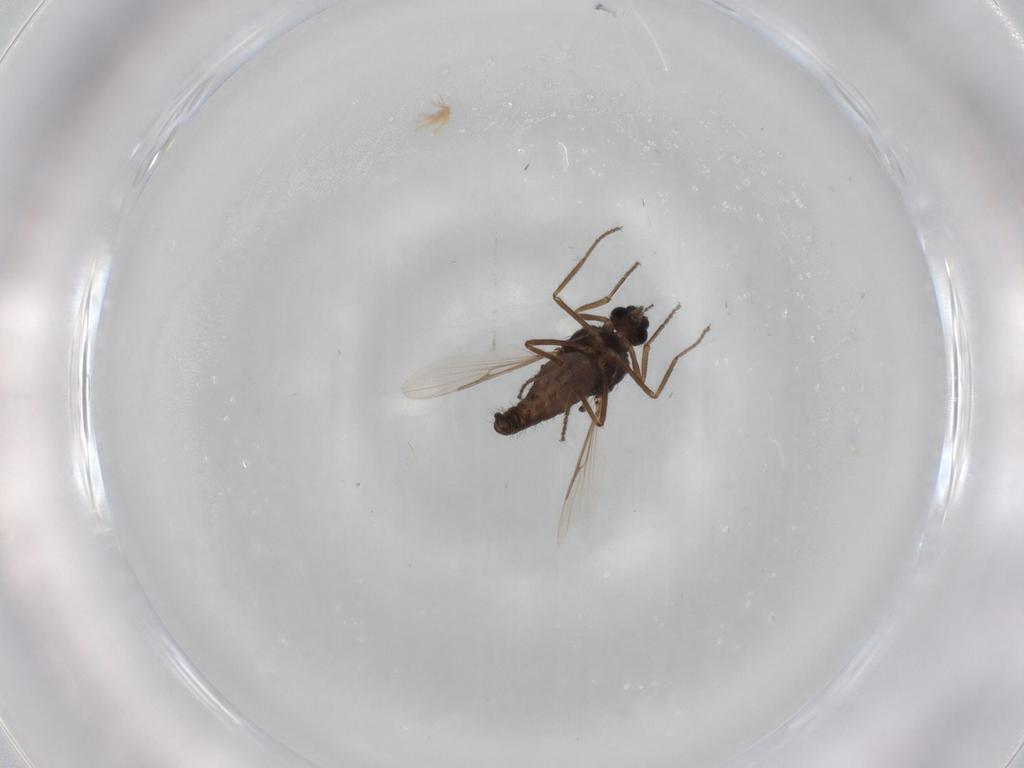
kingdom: Animalia
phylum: Arthropoda
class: Insecta
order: Diptera
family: Ceratopogonidae
